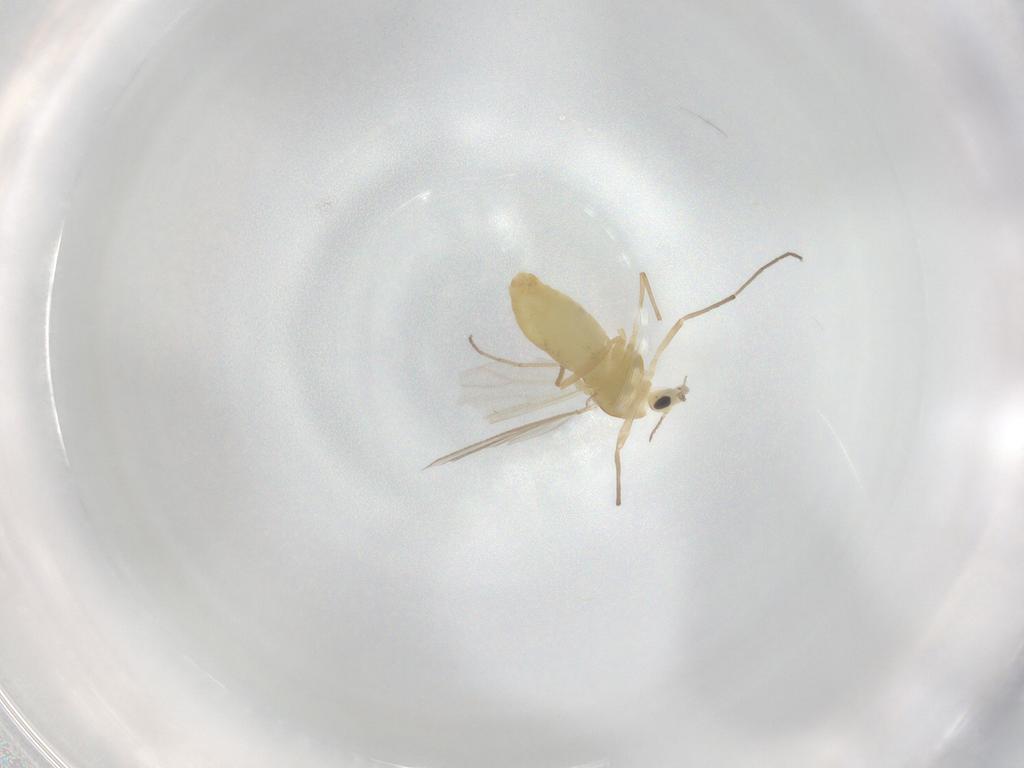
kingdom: Animalia
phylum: Arthropoda
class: Insecta
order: Diptera
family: Chironomidae
